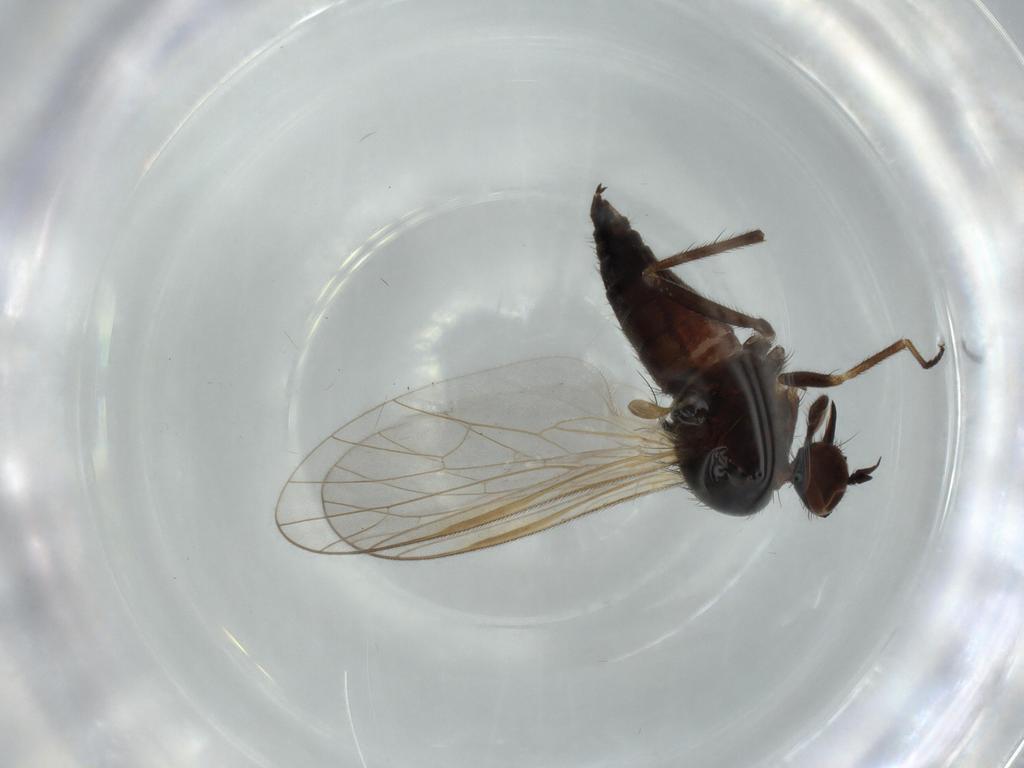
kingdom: Animalia
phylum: Arthropoda
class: Insecta
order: Diptera
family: Empididae
